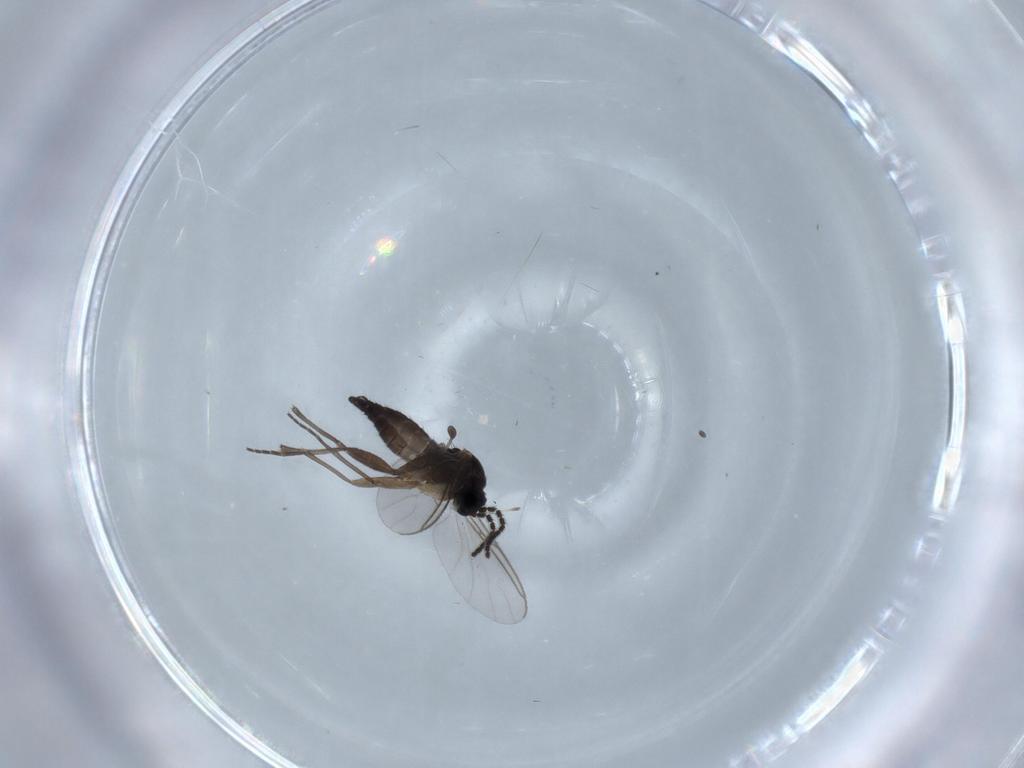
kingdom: Animalia
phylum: Arthropoda
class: Insecta
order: Diptera
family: Sciaridae
